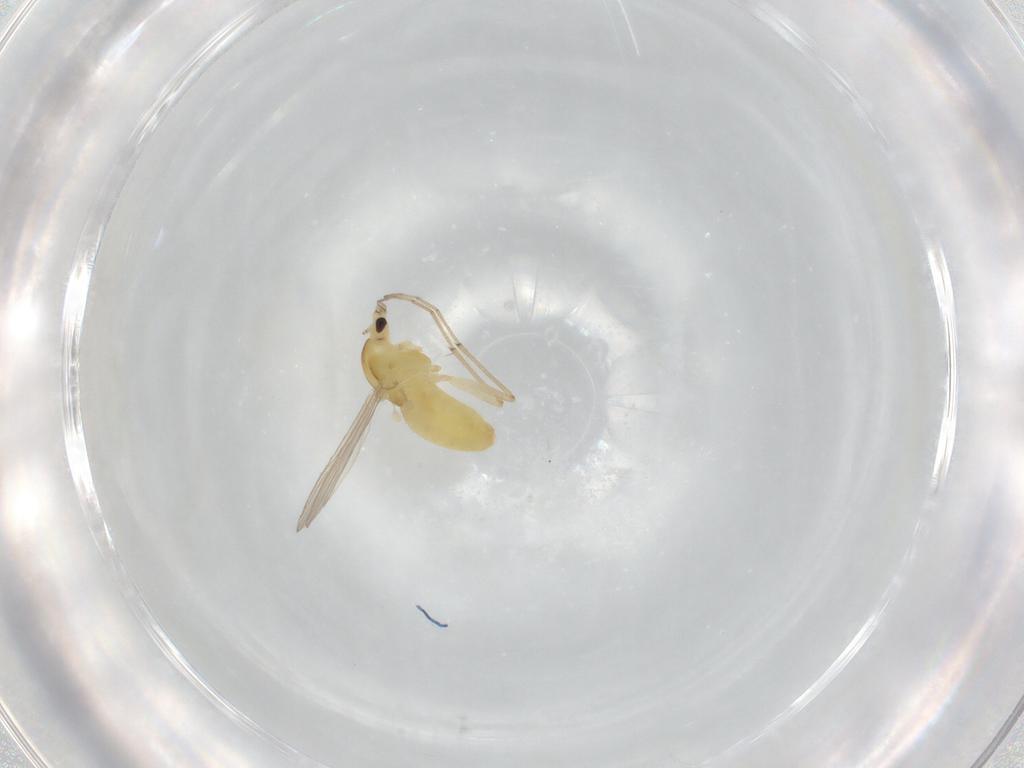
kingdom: Animalia
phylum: Arthropoda
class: Insecta
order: Diptera
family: Chironomidae
